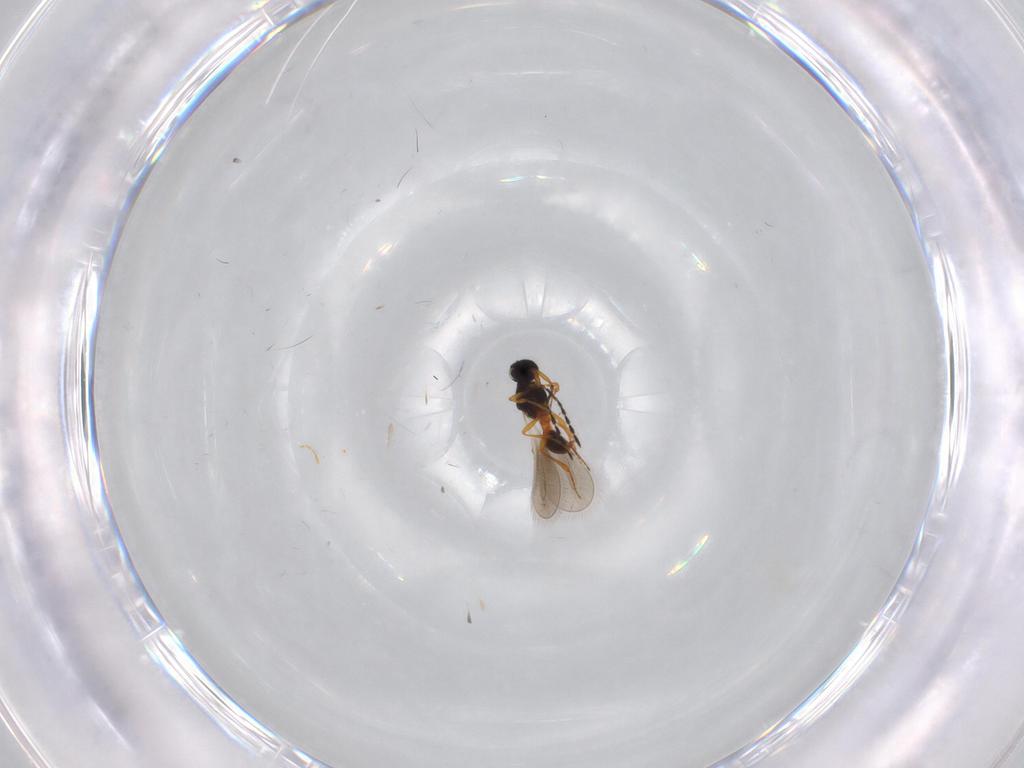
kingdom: Animalia
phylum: Arthropoda
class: Insecta
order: Hymenoptera
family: Platygastridae
